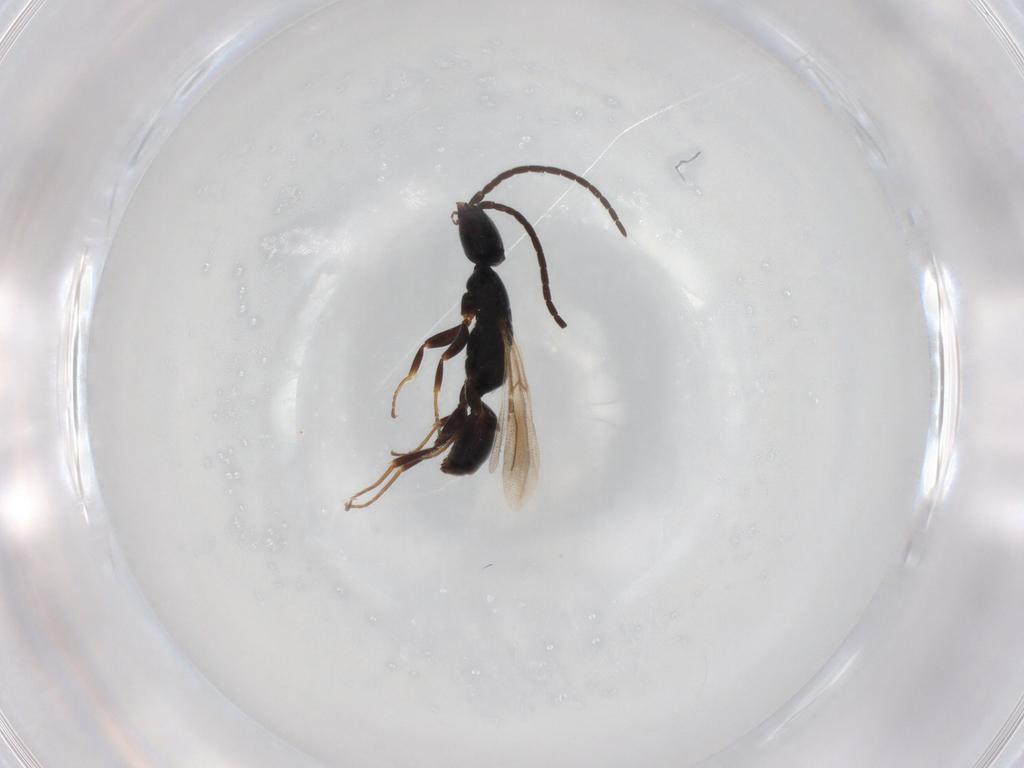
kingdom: Animalia
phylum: Arthropoda
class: Insecta
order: Hymenoptera
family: Bethylidae
